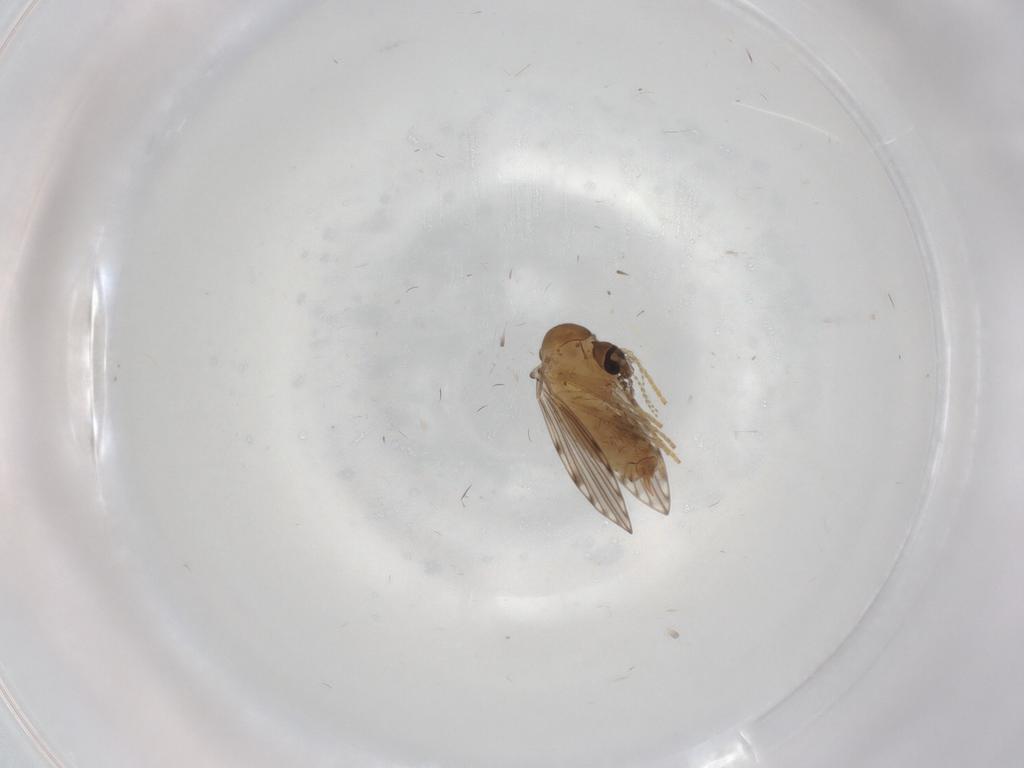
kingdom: Animalia
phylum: Arthropoda
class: Insecta
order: Diptera
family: Psychodidae
